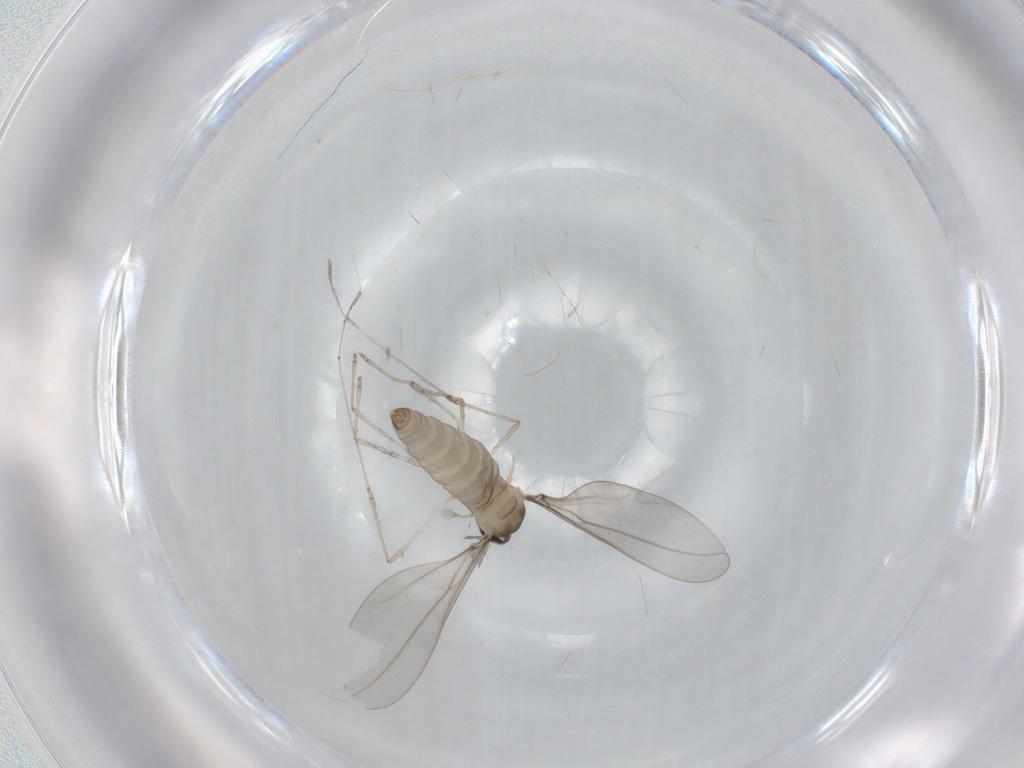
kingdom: Animalia
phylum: Arthropoda
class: Insecta
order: Diptera
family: Cecidomyiidae
